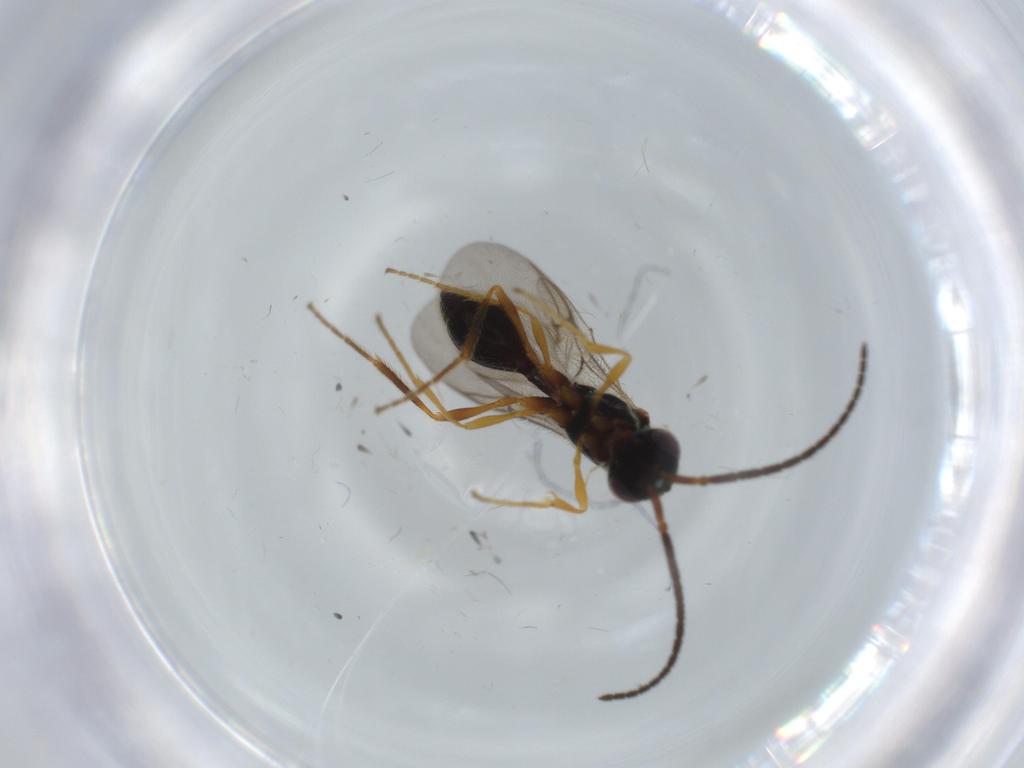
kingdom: Animalia
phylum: Arthropoda
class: Insecta
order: Hymenoptera
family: Diapriidae
